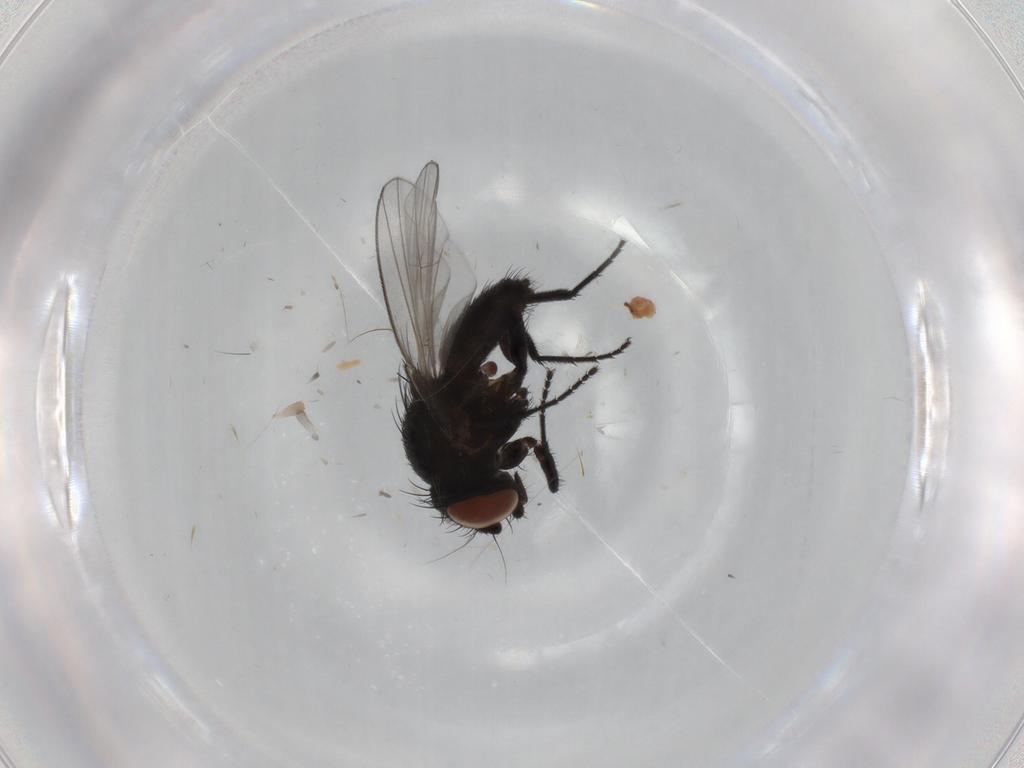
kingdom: Animalia
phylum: Arthropoda
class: Insecta
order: Diptera
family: Milichiidae
